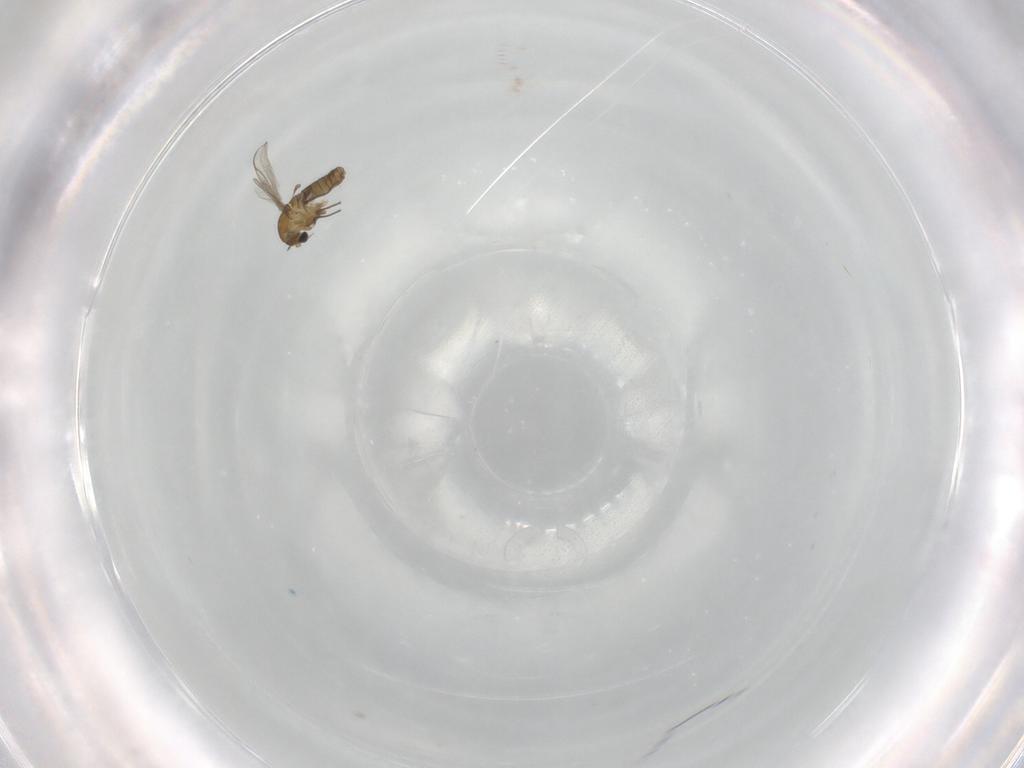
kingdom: Animalia
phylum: Arthropoda
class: Insecta
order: Diptera
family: Chironomidae
